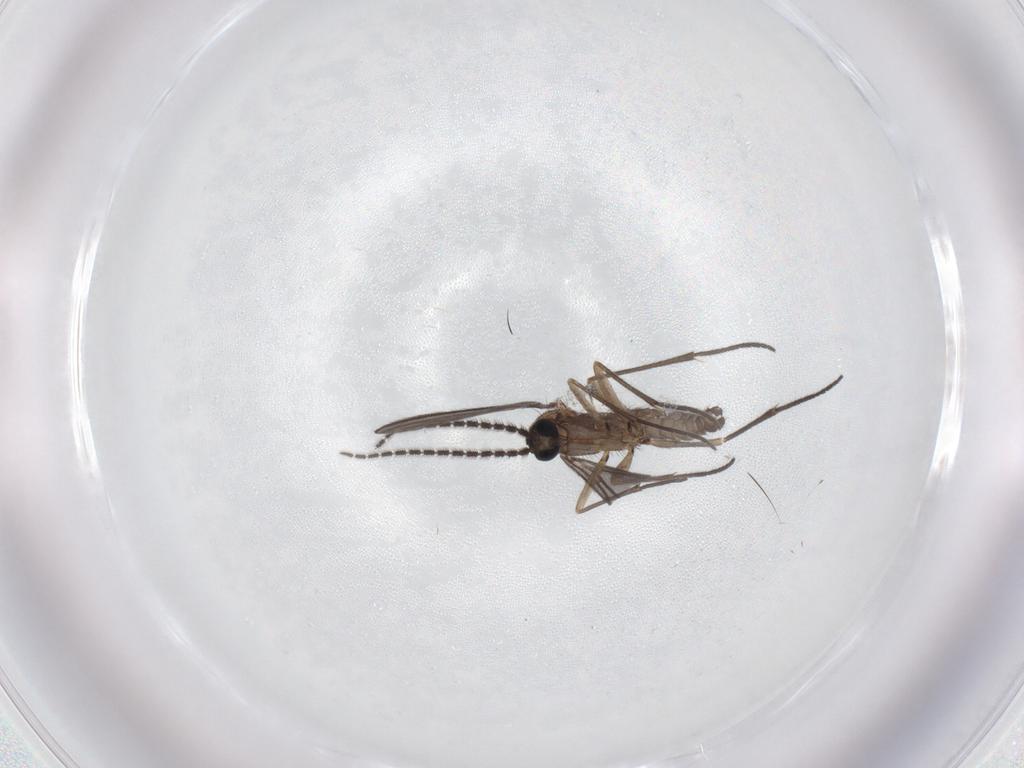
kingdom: Animalia
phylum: Arthropoda
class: Insecta
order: Diptera
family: Sciaridae
